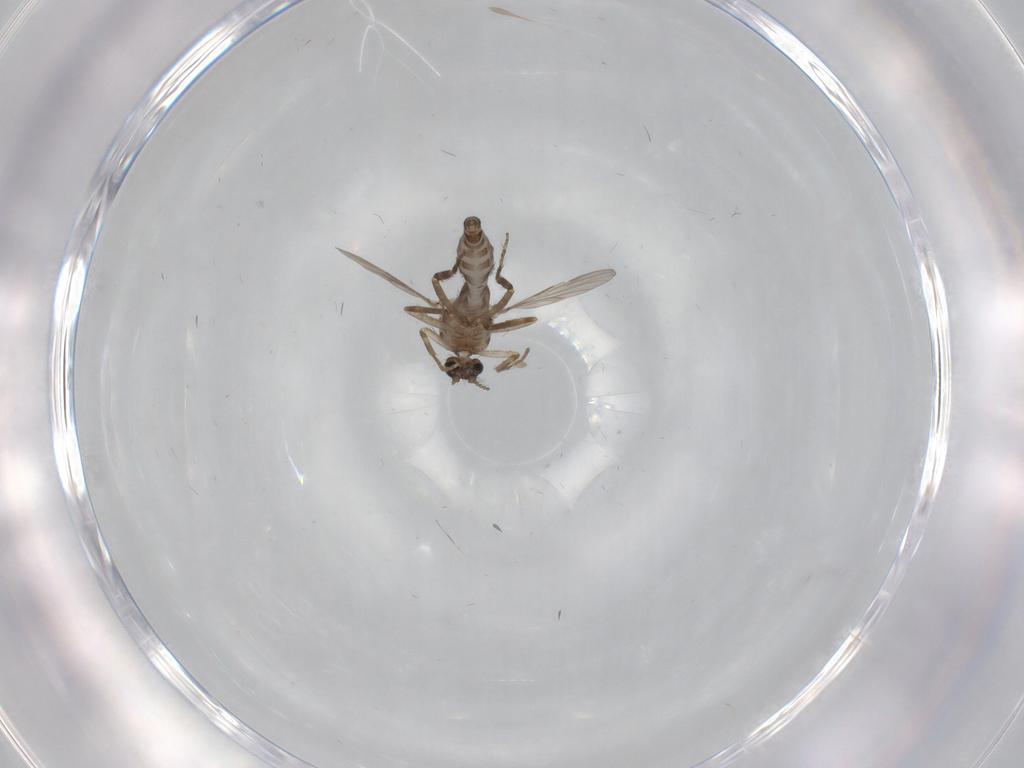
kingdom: Animalia
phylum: Arthropoda
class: Insecta
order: Diptera
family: Ceratopogonidae
